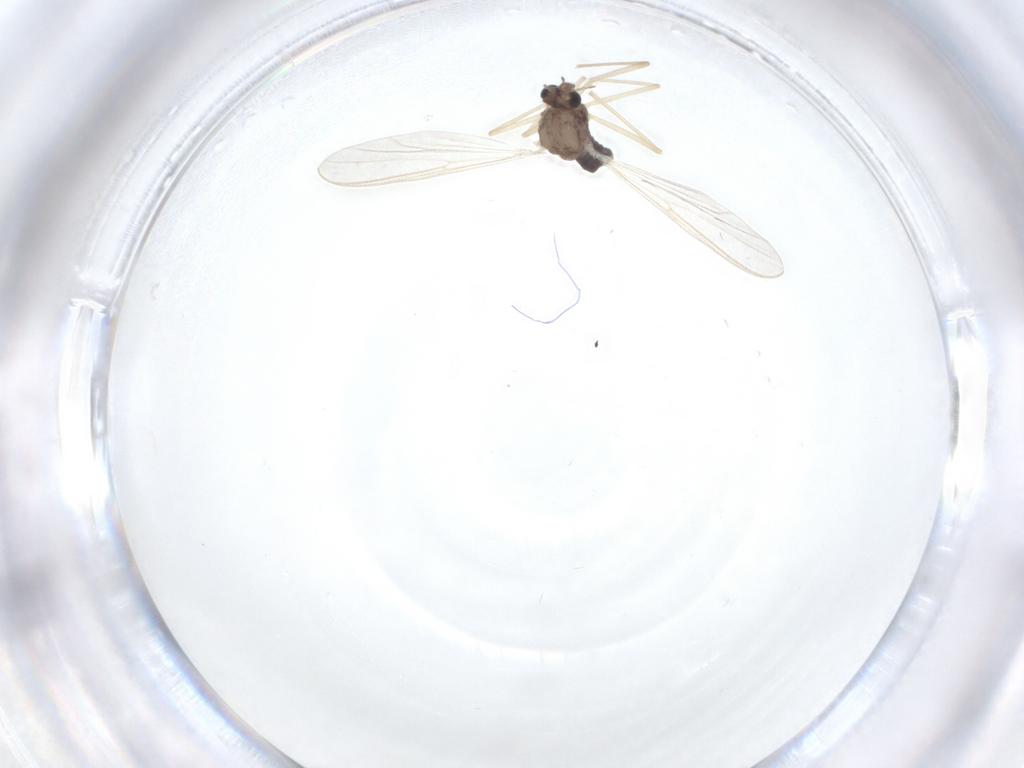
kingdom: Animalia
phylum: Arthropoda
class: Insecta
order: Diptera
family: Chironomidae
